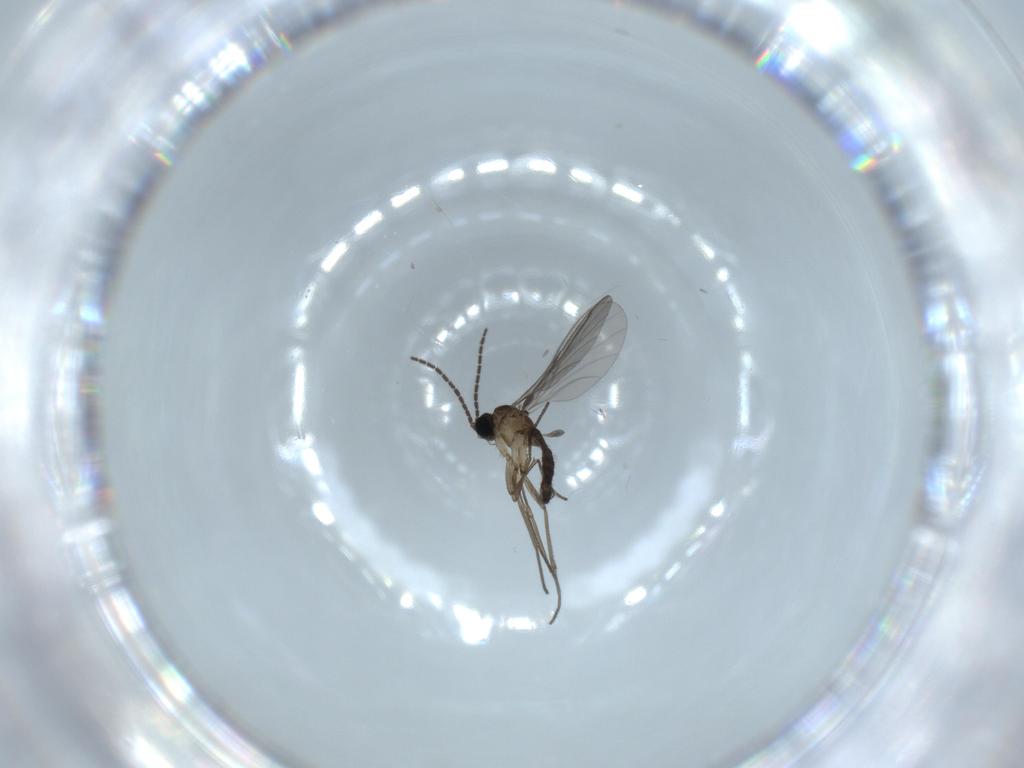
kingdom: Animalia
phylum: Arthropoda
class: Insecta
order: Diptera
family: Sciaridae
